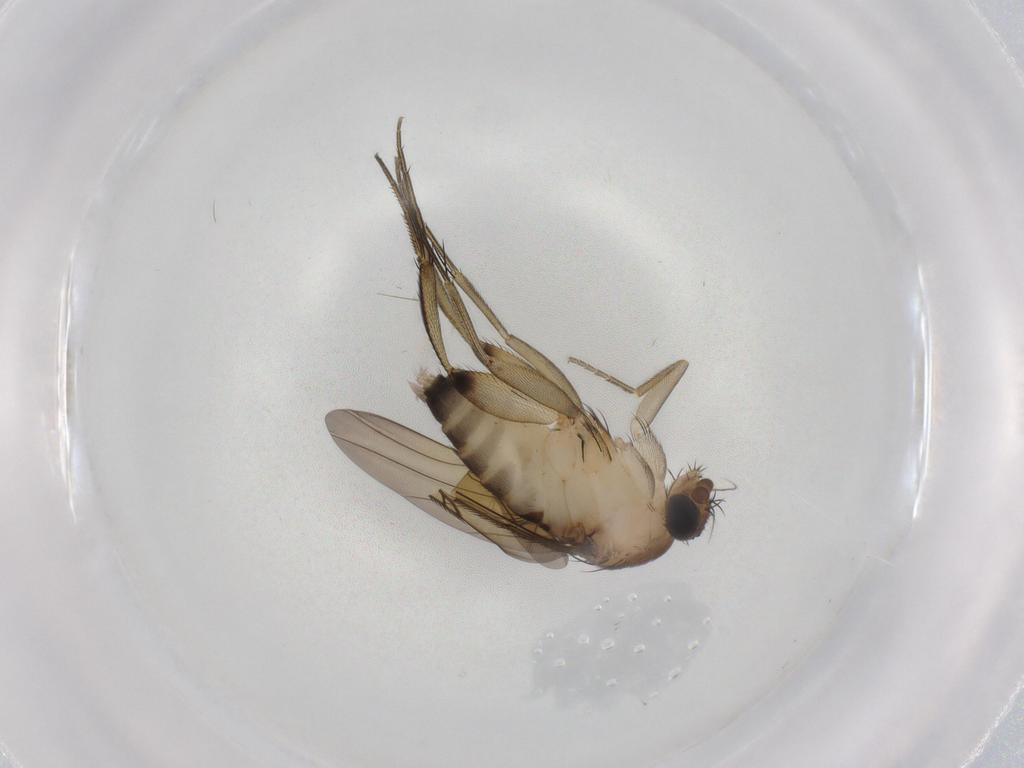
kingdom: Animalia
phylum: Arthropoda
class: Insecta
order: Diptera
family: Phoridae
